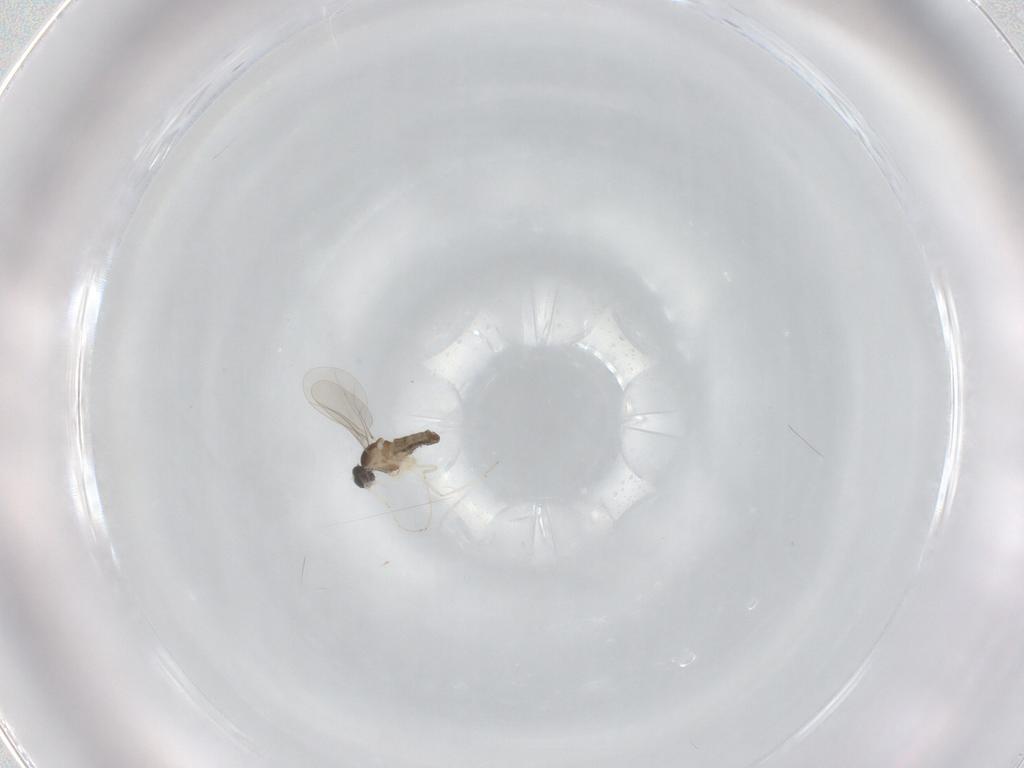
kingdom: Animalia
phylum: Arthropoda
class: Insecta
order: Diptera
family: Cecidomyiidae
